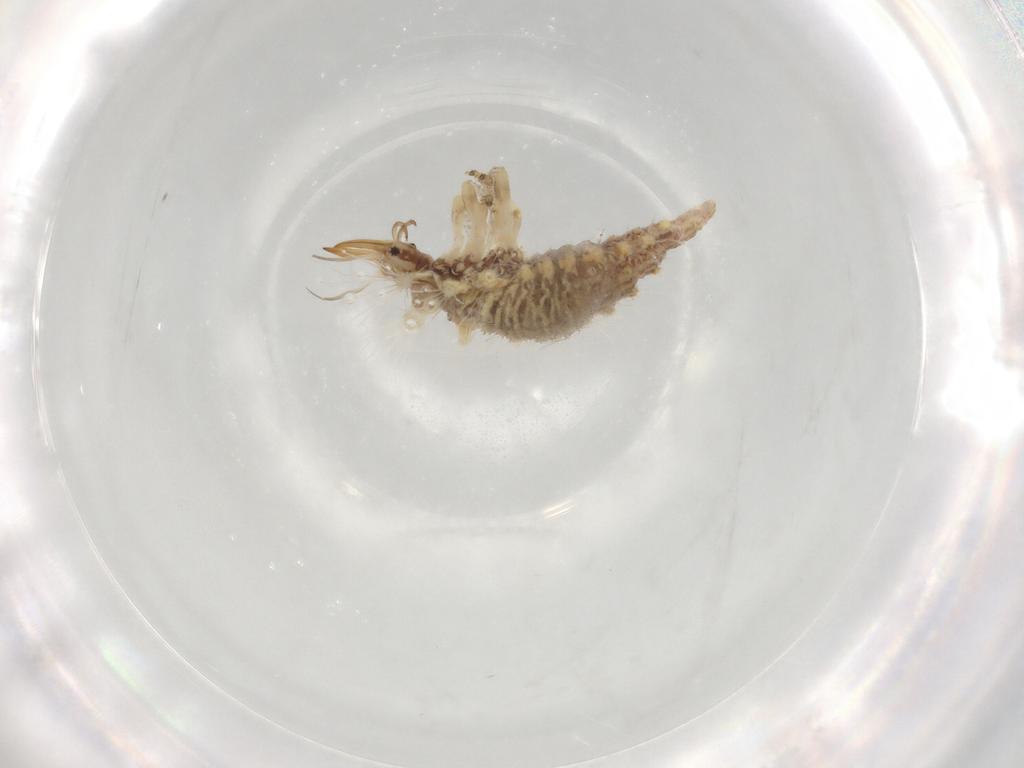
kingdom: Animalia
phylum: Arthropoda
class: Insecta
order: Neuroptera
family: Chrysopidae
